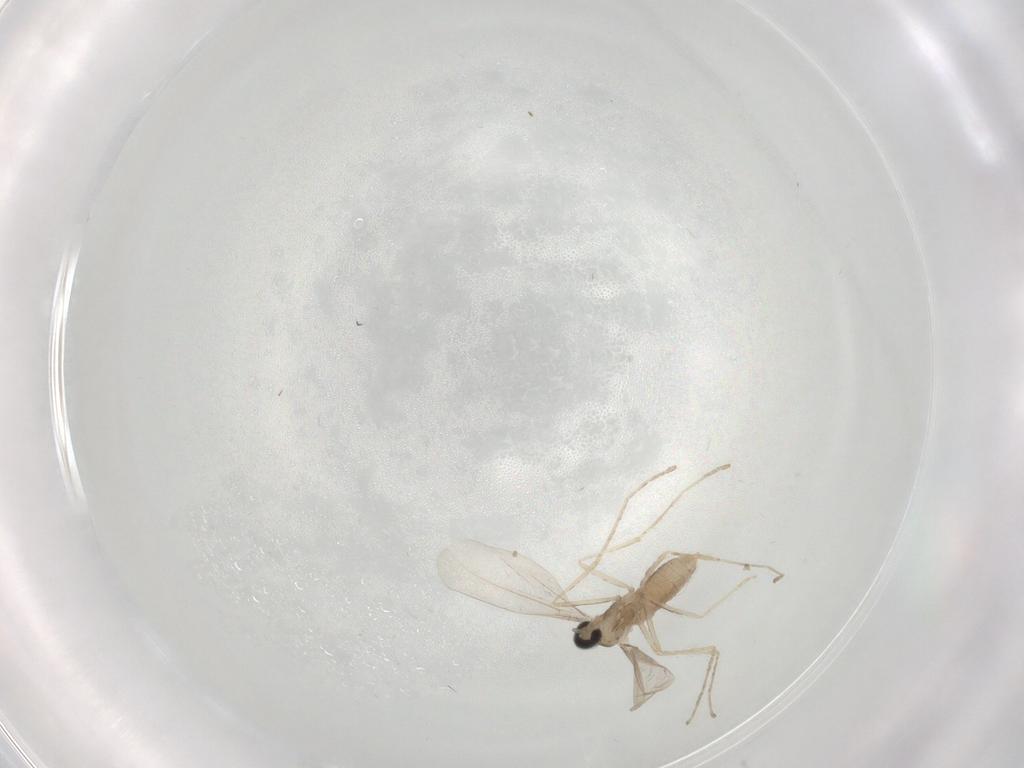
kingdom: Animalia
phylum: Arthropoda
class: Insecta
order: Diptera
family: Cecidomyiidae
